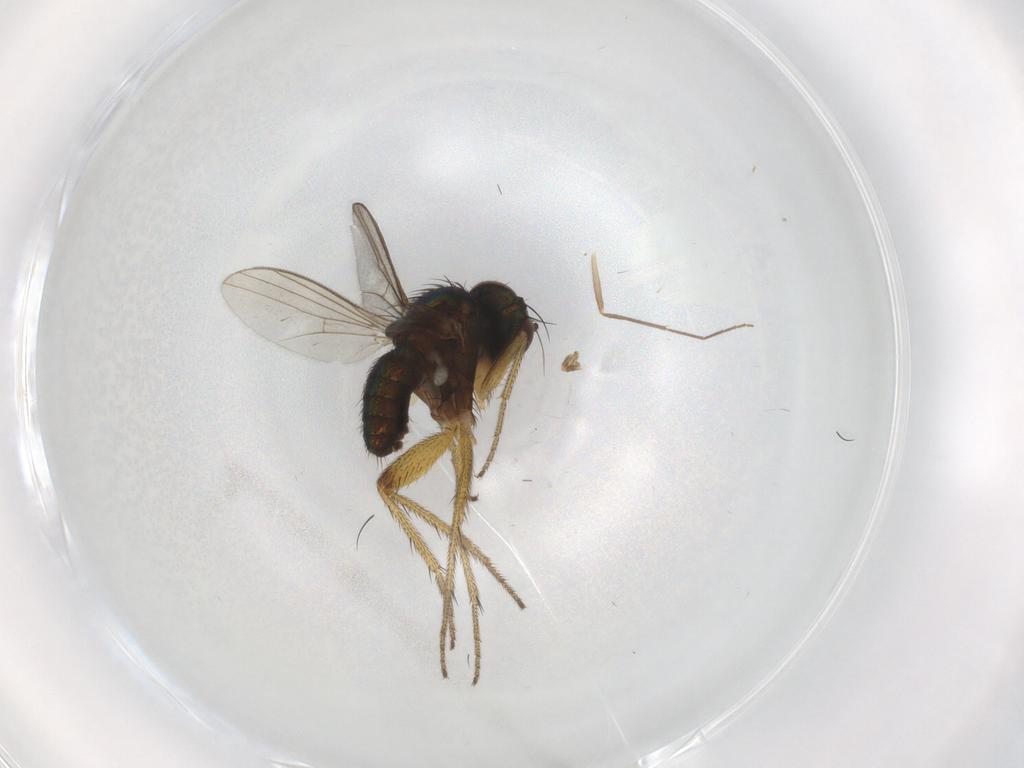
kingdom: Animalia
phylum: Arthropoda
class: Insecta
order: Diptera
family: Ceratopogonidae
